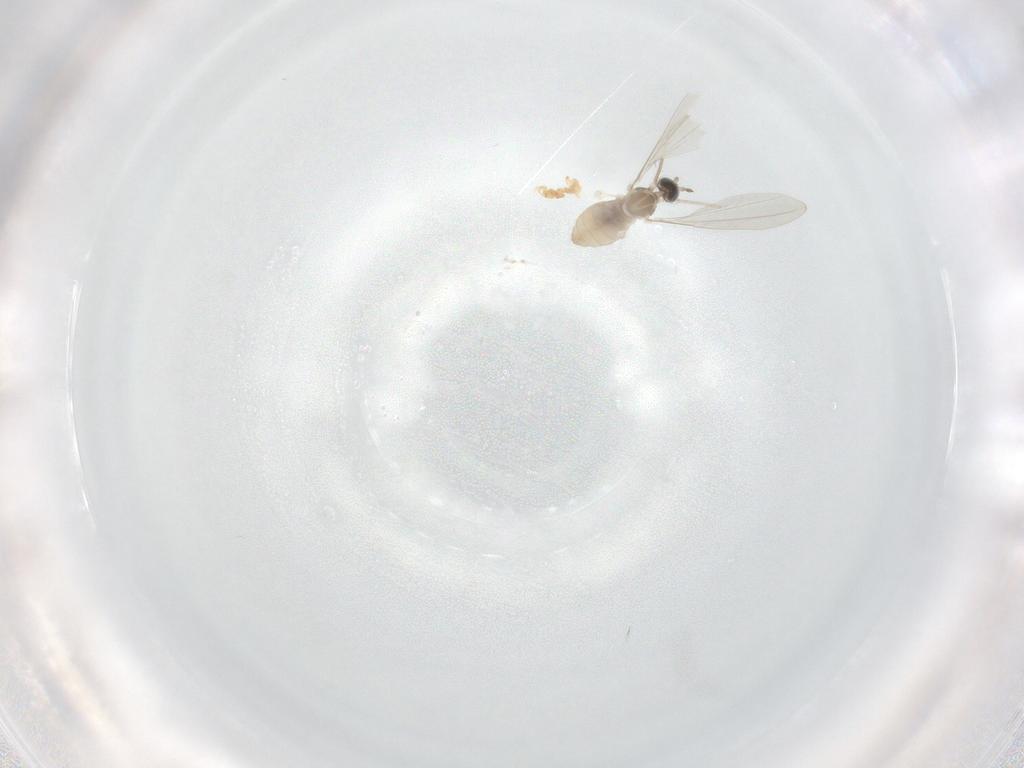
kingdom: Animalia
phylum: Arthropoda
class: Insecta
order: Diptera
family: Cecidomyiidae
